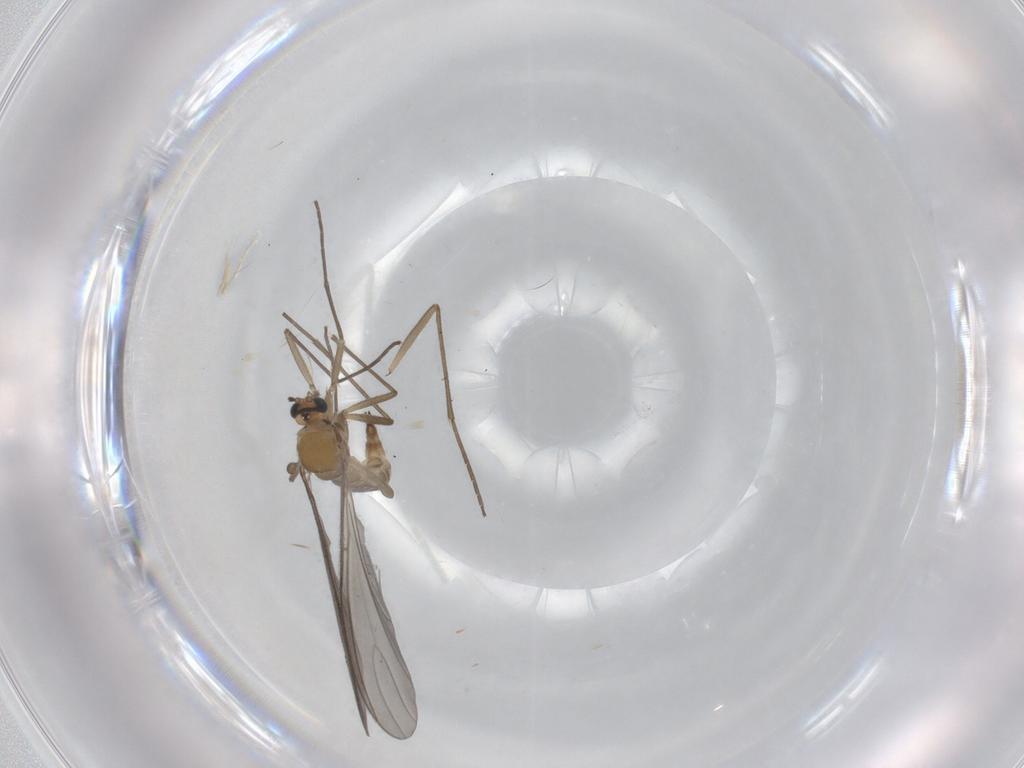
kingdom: Animalia
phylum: Arthropoda
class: Insecta
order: Diptera
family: Sciaridae
